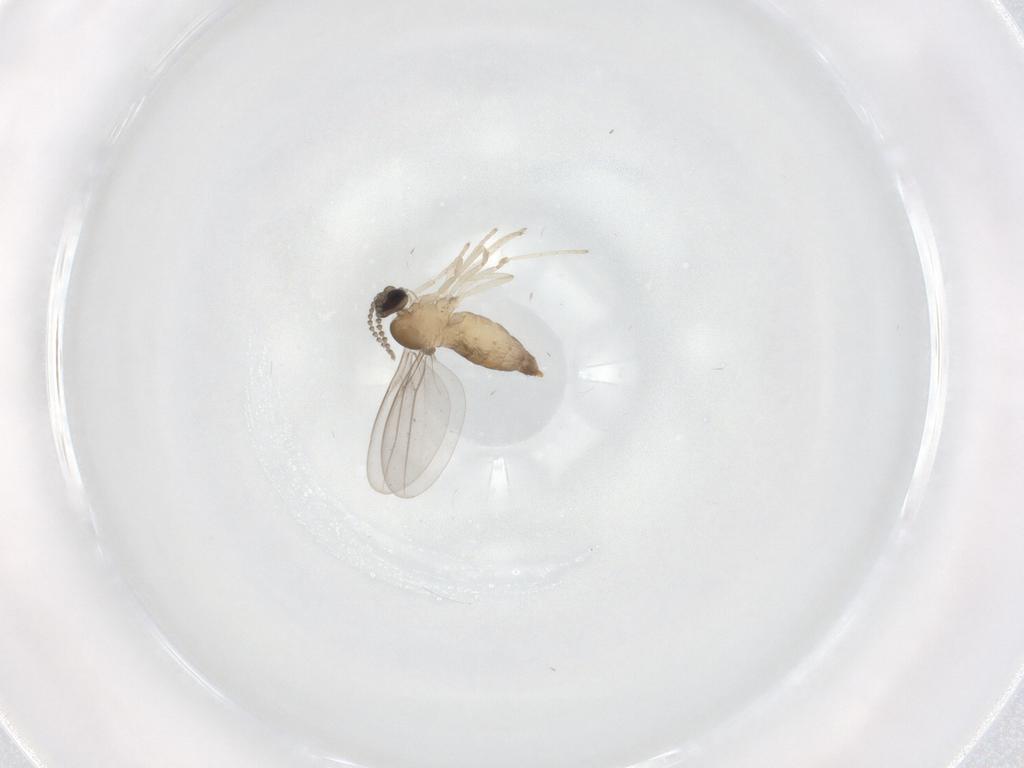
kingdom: Animalia
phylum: Arthropoda
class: Insecta
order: Diptera
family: Cecidomyiidae
